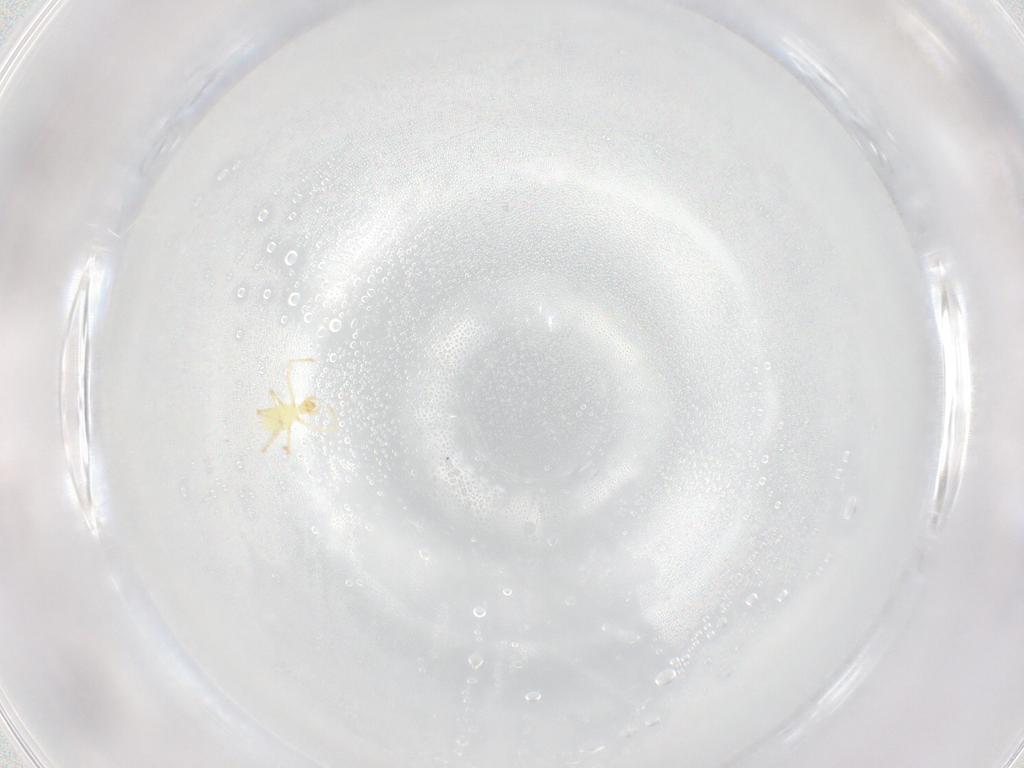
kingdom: Animalia
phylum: Arthropoda
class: Arachnida
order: Trombidiformes
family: Erythraeidae
